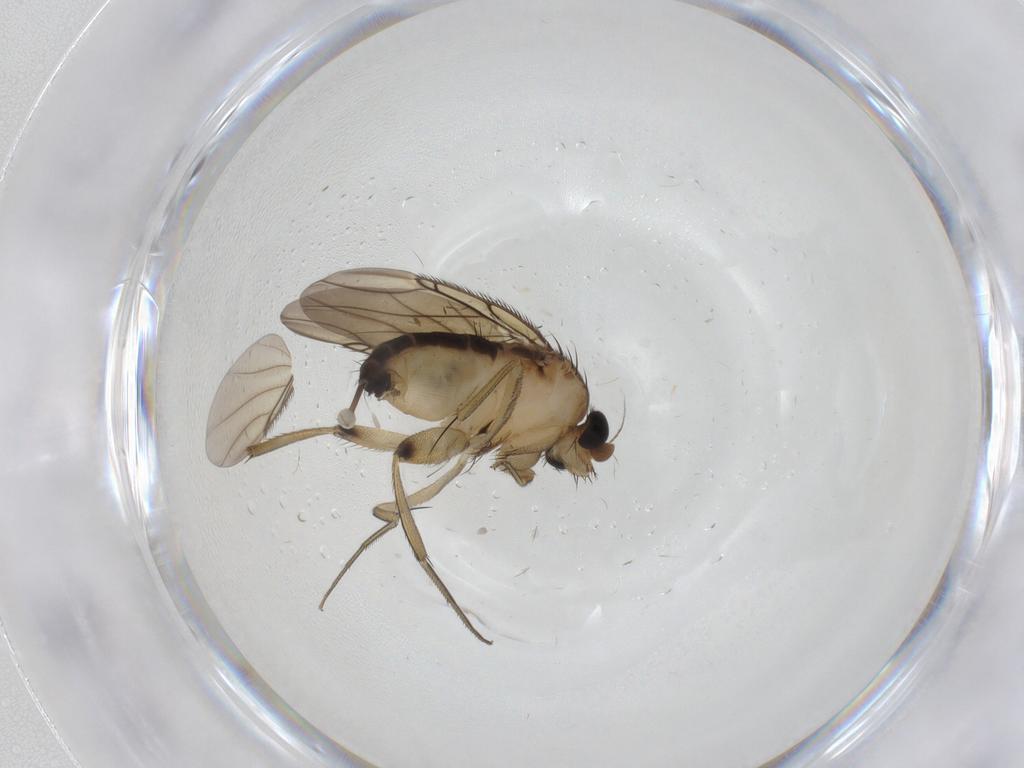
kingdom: Animalia
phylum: Arthropoda
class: Insecta
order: Diptera
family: Phoridae
